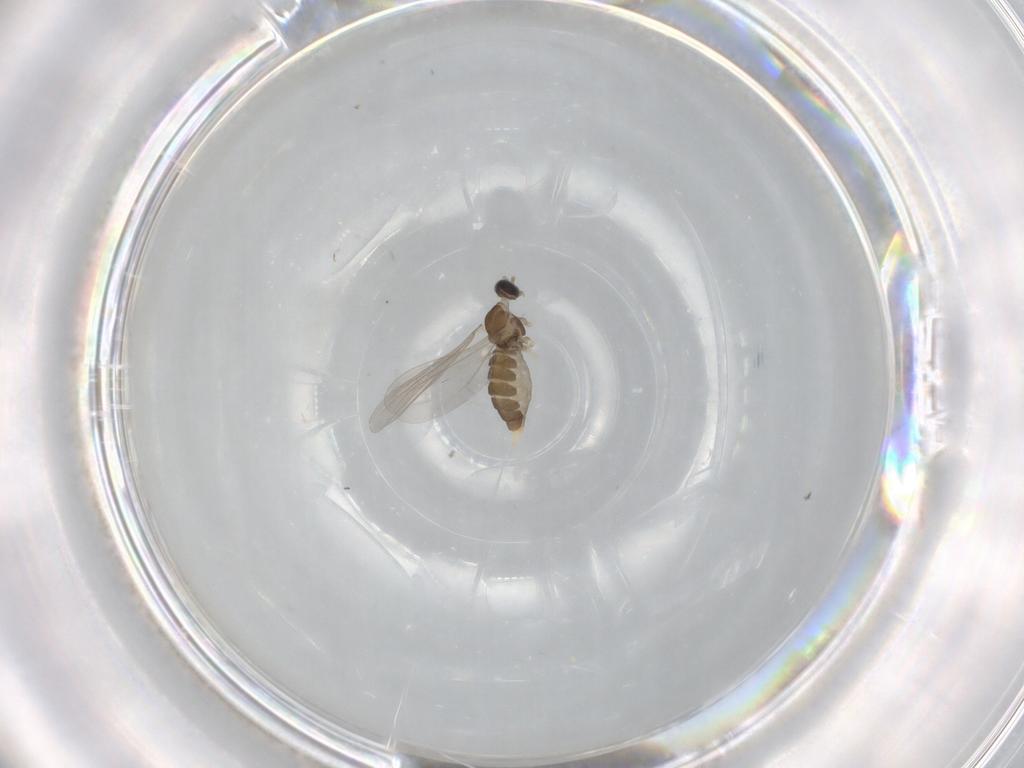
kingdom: Animalia
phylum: Arthropoda
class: Insecta
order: Diptera
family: Cecidomyiidae
